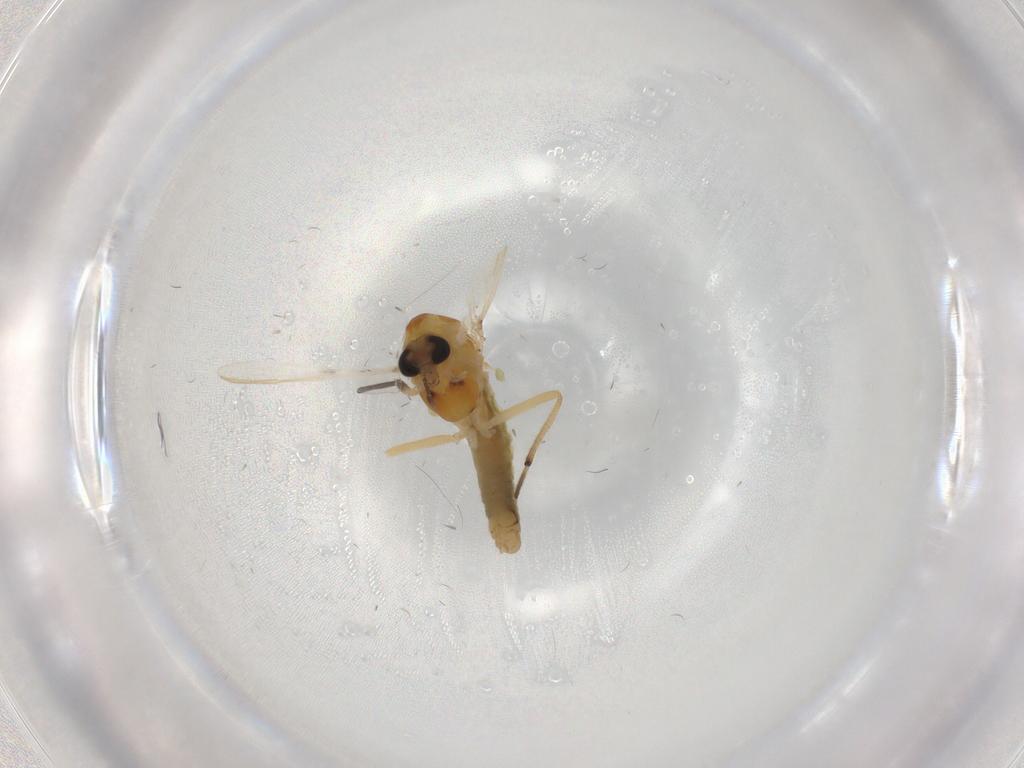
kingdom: Animalia
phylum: Arthropoda
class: Insecta
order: Diptera
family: Chironomidae
